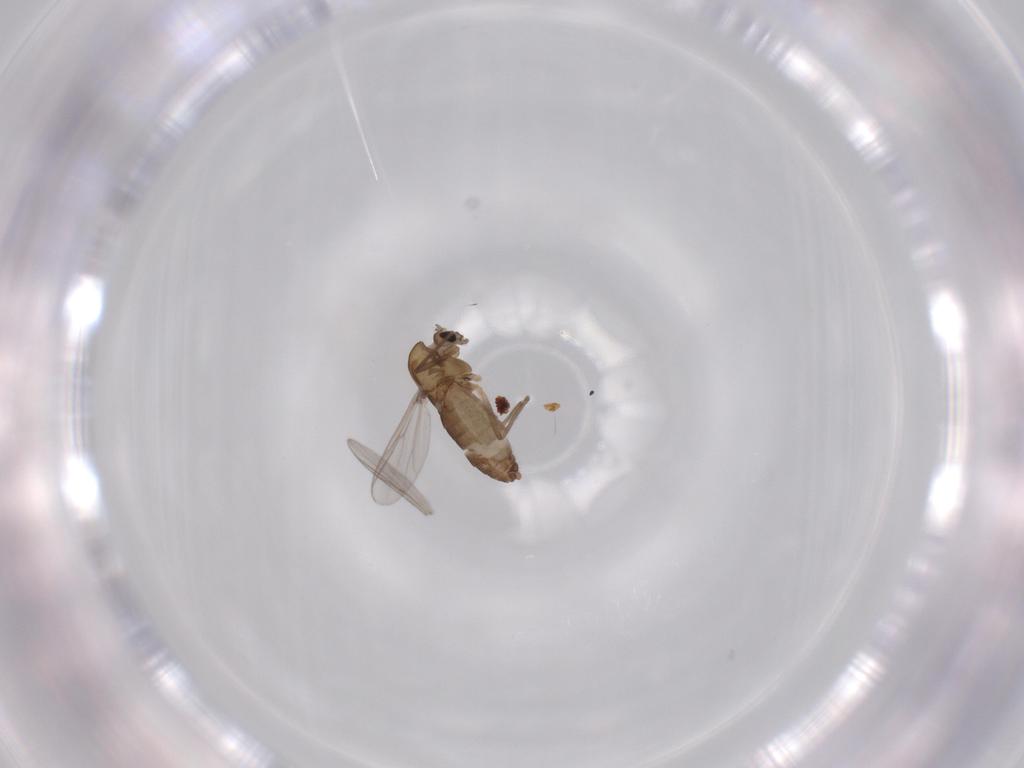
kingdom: Animalia
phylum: Arthropoda
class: Insecta
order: Diptera
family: Chironomidae
